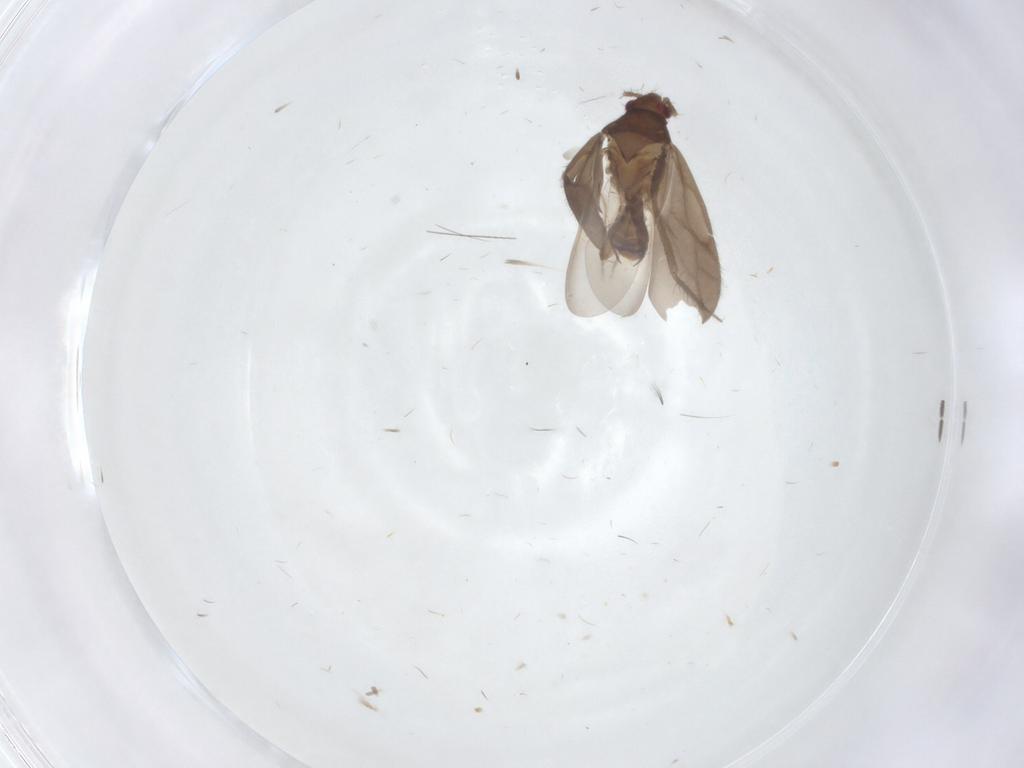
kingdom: Animalia
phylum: Arthropoda
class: Insecta
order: Hemiptera
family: Ceratocombidae
